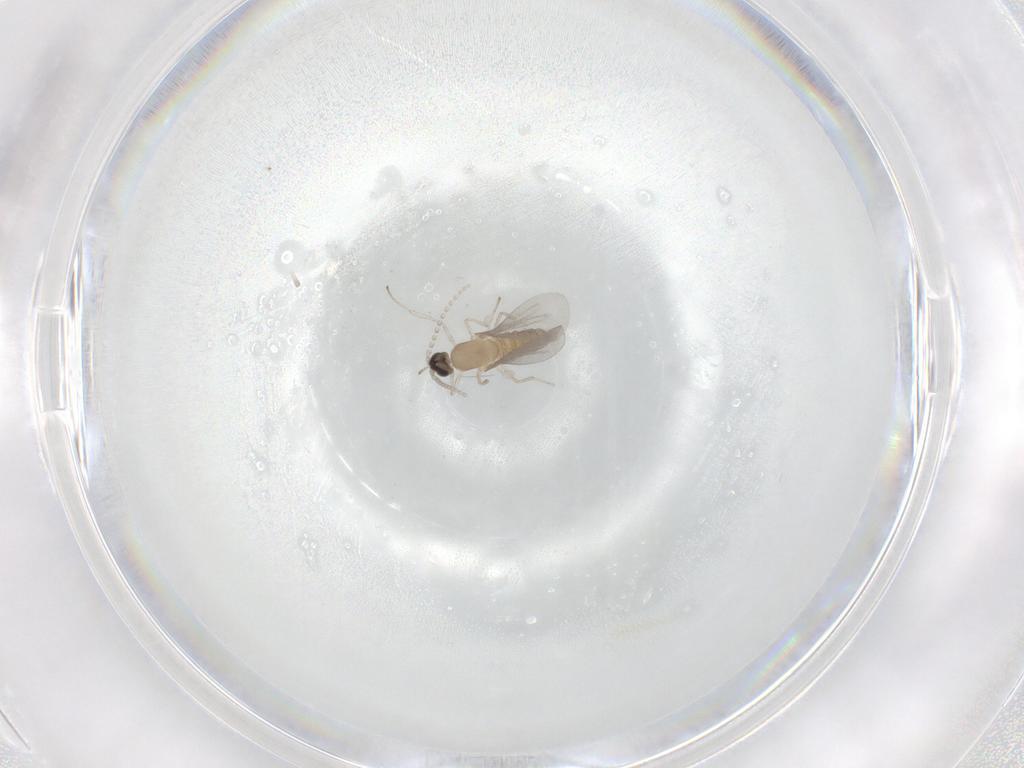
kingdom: Animalia
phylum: Arthropoda
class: Insecta
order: Diptera
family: Cecidomyiidae
